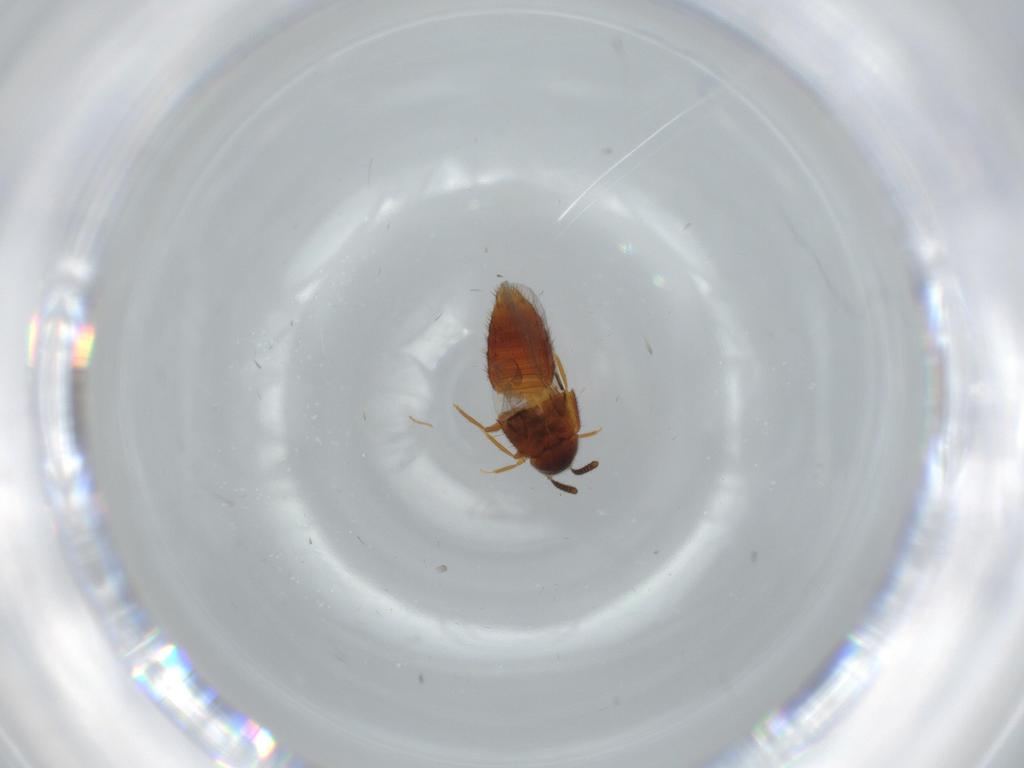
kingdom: Animalia
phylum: Arthropoda
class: Insecta
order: Coleoptera
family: Staphylinidae
